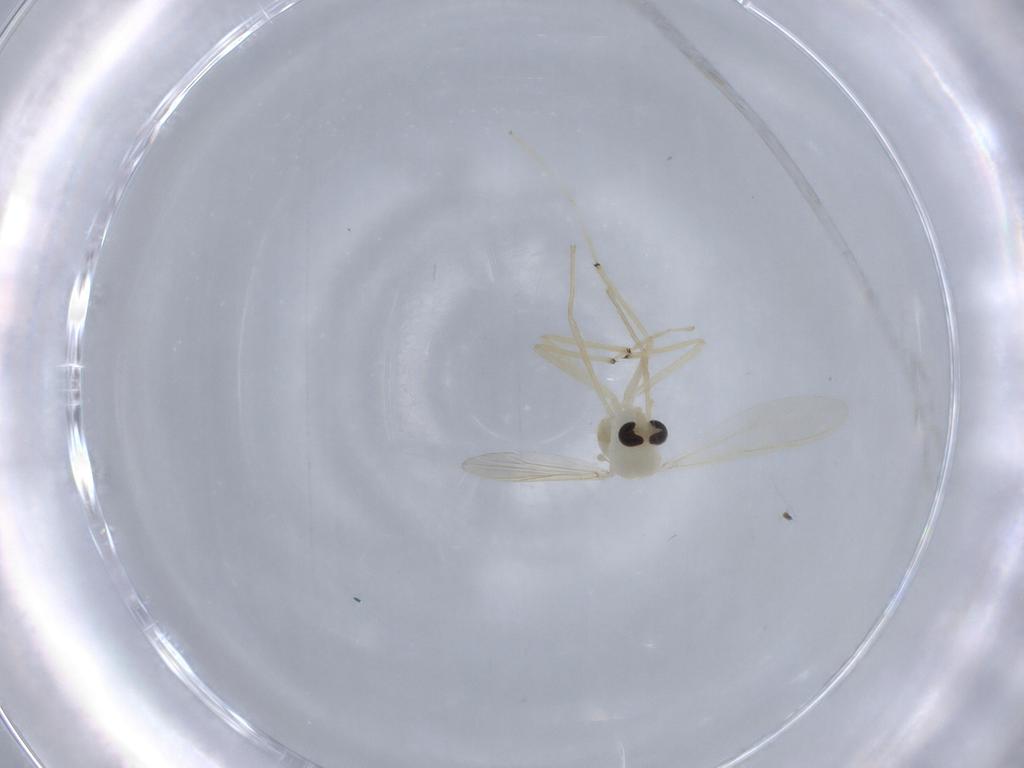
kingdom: Animalia
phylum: Arthropoda
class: Insecta
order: Diptera
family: Chironomidae
